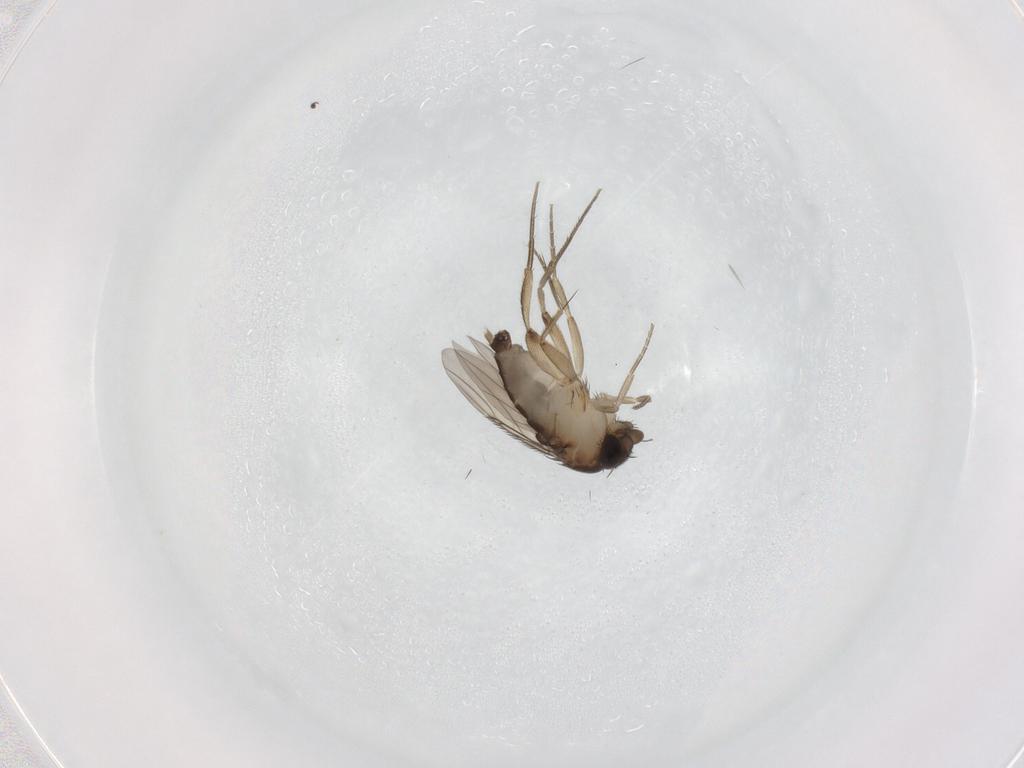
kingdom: Animalia
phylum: Arthropoda
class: Insecta
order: Diptera
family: Phoridae
